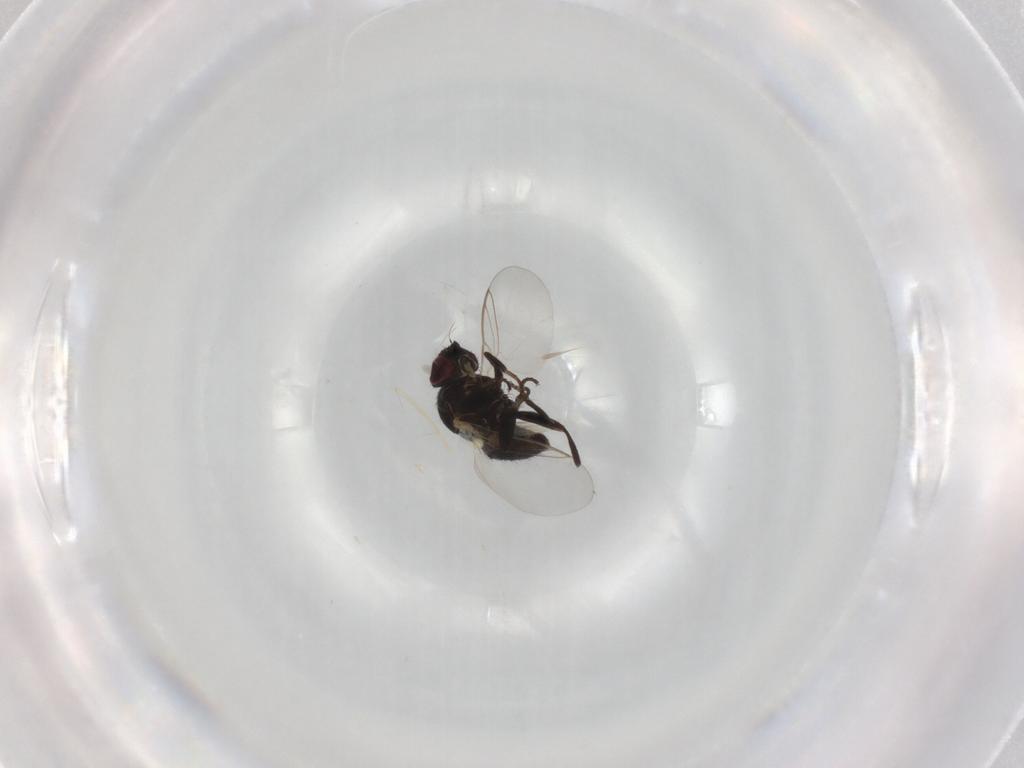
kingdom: Animalia
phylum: Arthropoda
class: Insecta
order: Diptera
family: Agromyzidae
